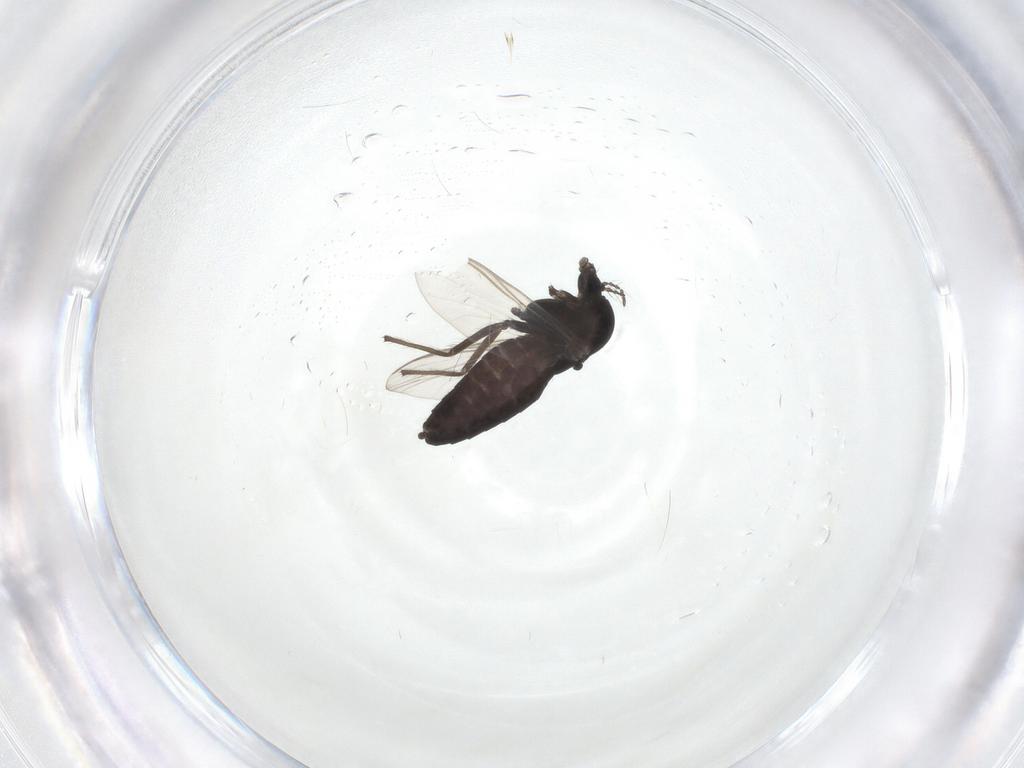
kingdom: Animalia
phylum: Arthropoda
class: Insecta
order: Diptera
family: Chironomidae
